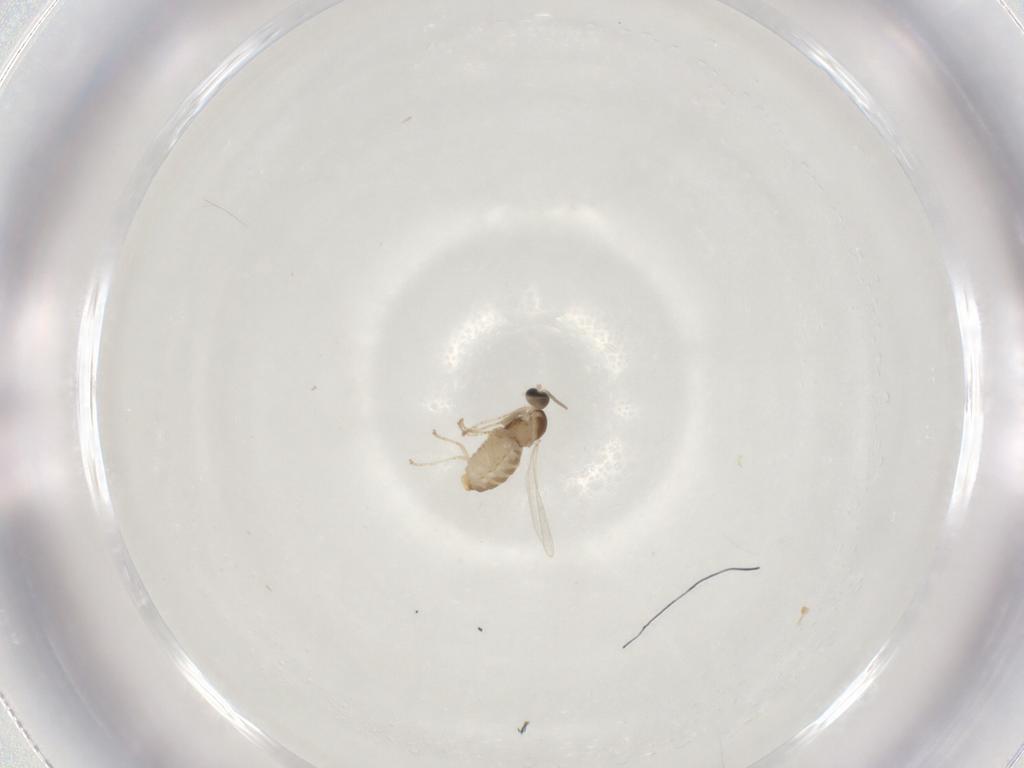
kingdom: Animalia
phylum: Arthropoda
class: Insecta
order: Diptera
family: Cecidomyiidae
